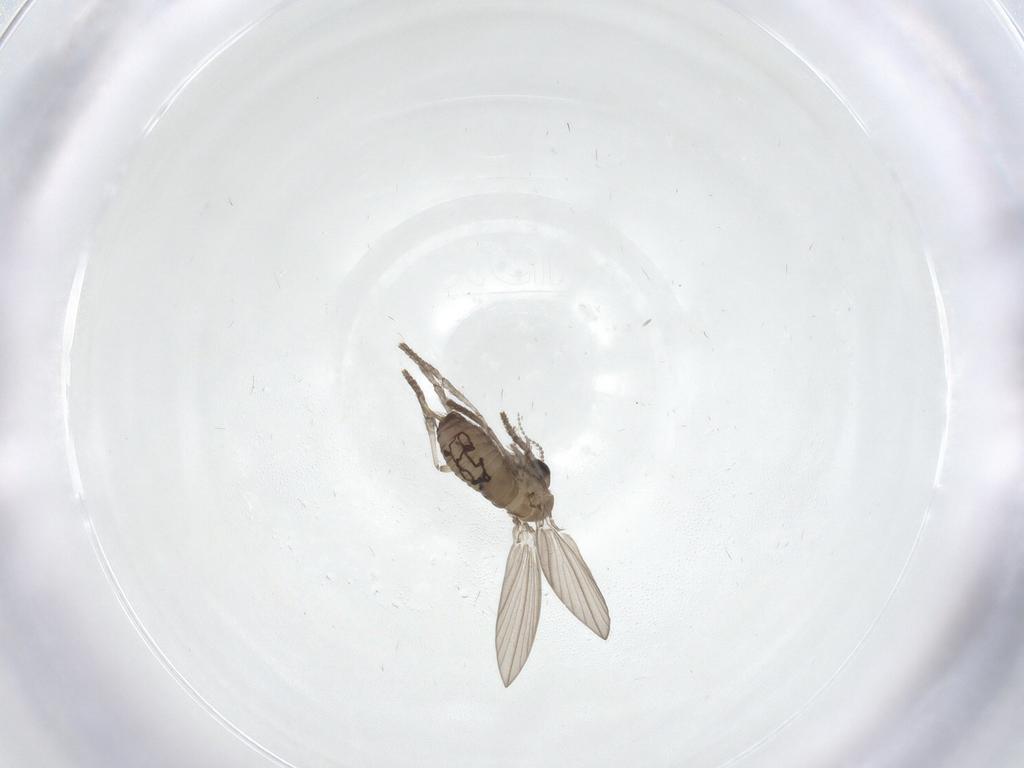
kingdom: Animalia
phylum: Arthropoda
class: Insecta
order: Diptera
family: Psychodidae
